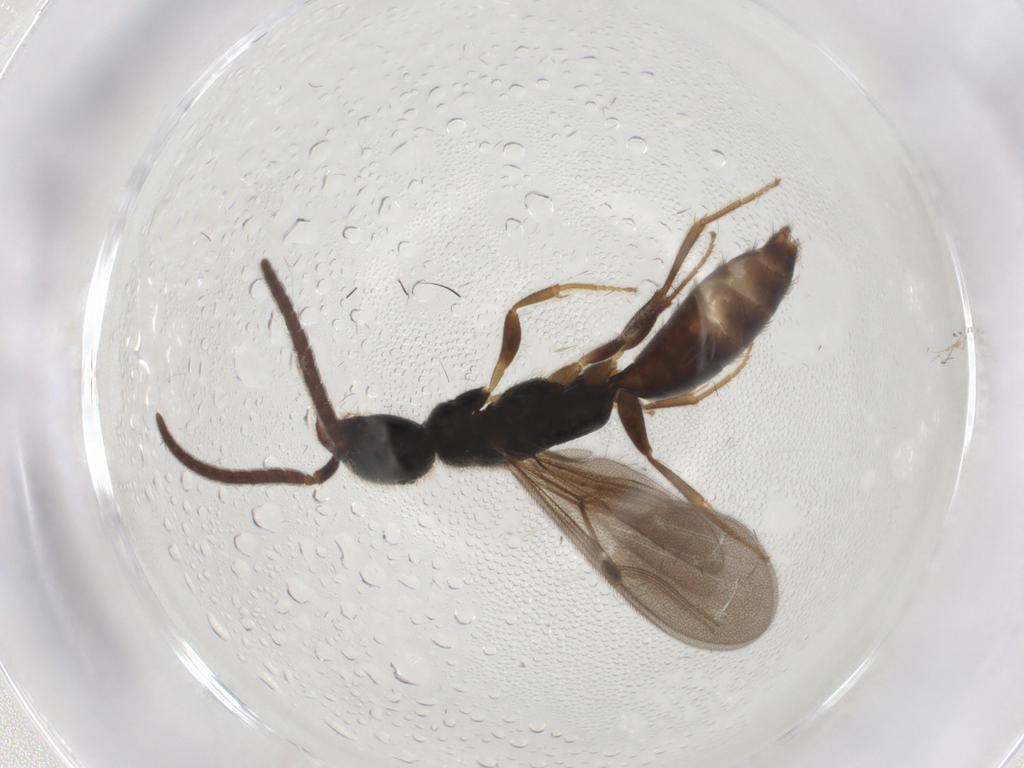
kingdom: Animalia
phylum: Arthropoda
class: Insecta
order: Hymenoptera
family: Bethylidae
